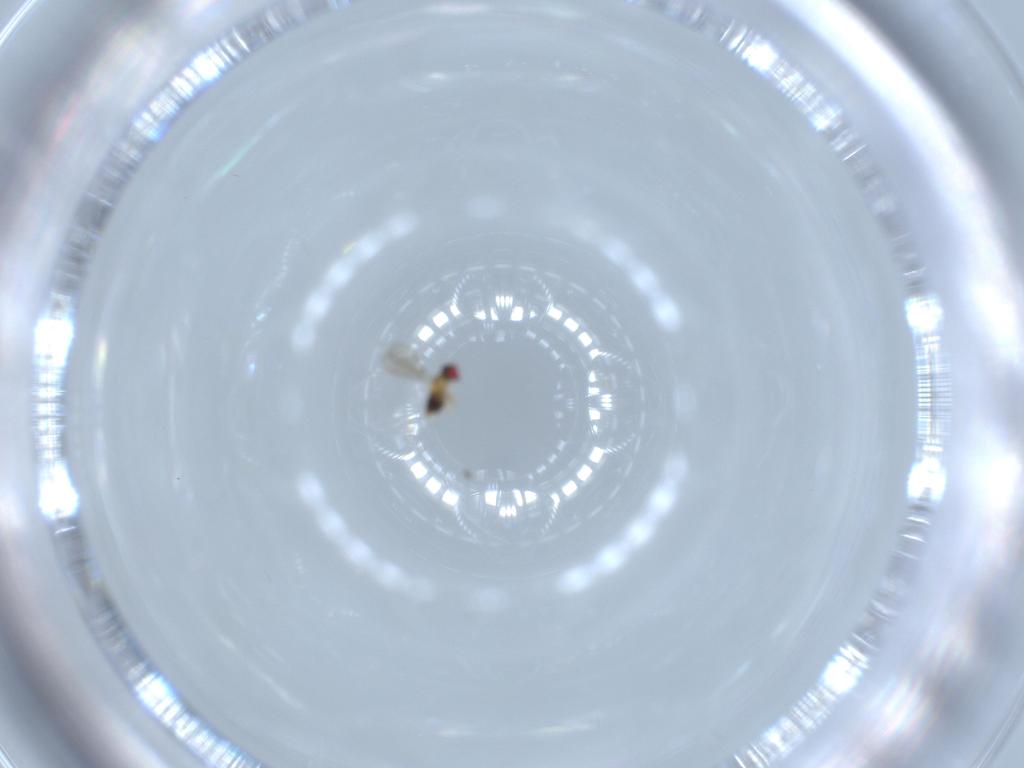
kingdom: Animalia
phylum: Arthropoda
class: Insecta
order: Hymenoptera
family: Aphelinidae
